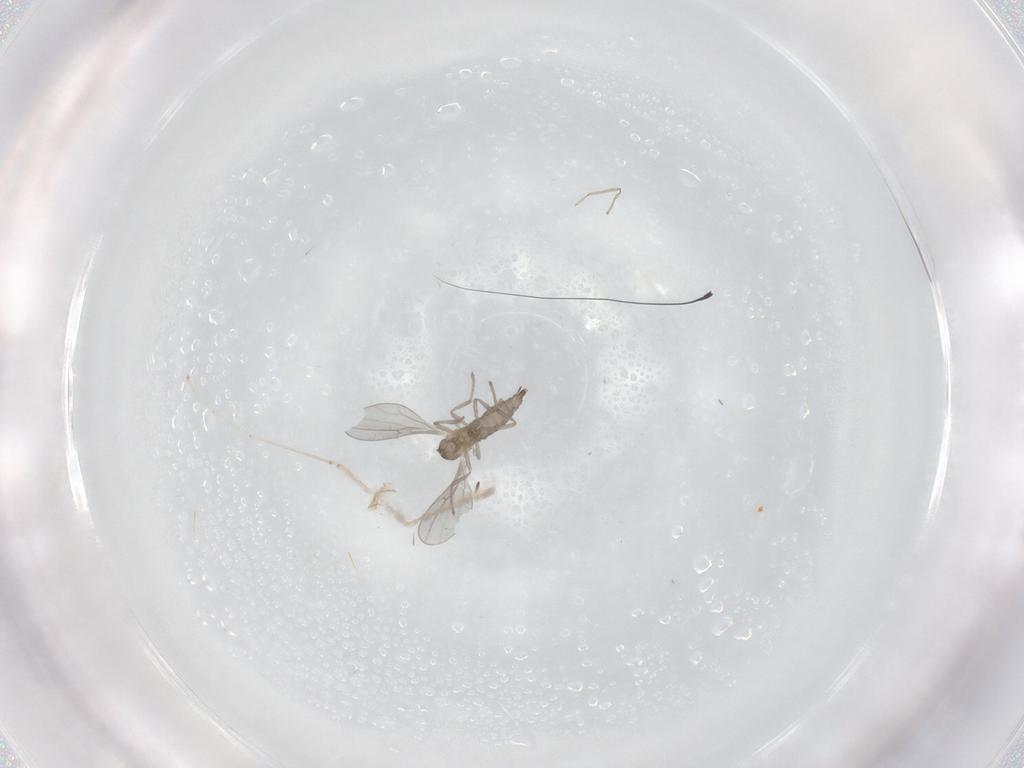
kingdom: Animalia
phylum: Arthropoda
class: Insecta
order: Diptera
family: Cecidomyiidae
